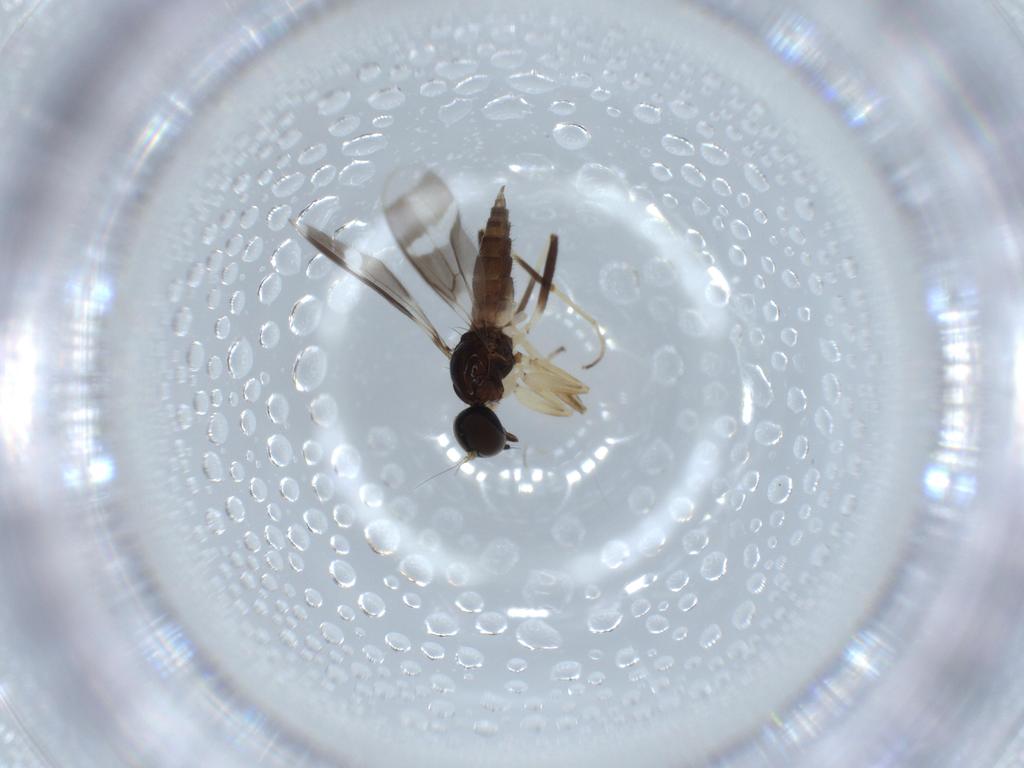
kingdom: Animalia
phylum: Arthropoda
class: Insecta
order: Diptera
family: Hybotidae
